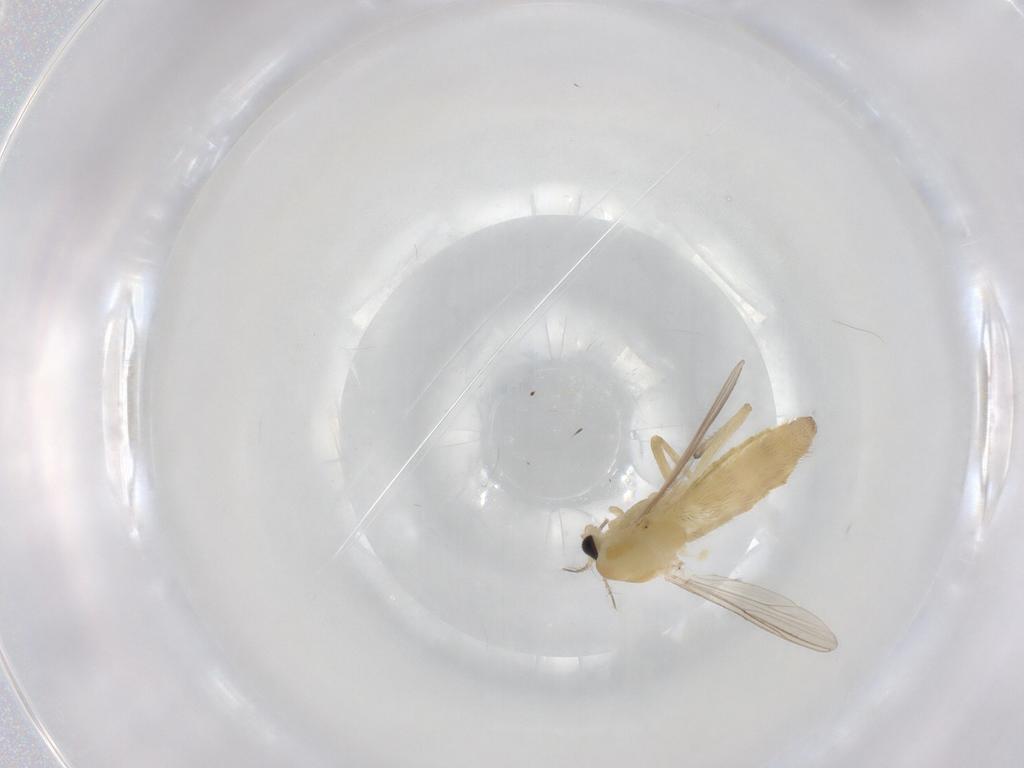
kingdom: Animalia
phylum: Arthropoda
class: Insecta
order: Diptera
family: Chironomidae
